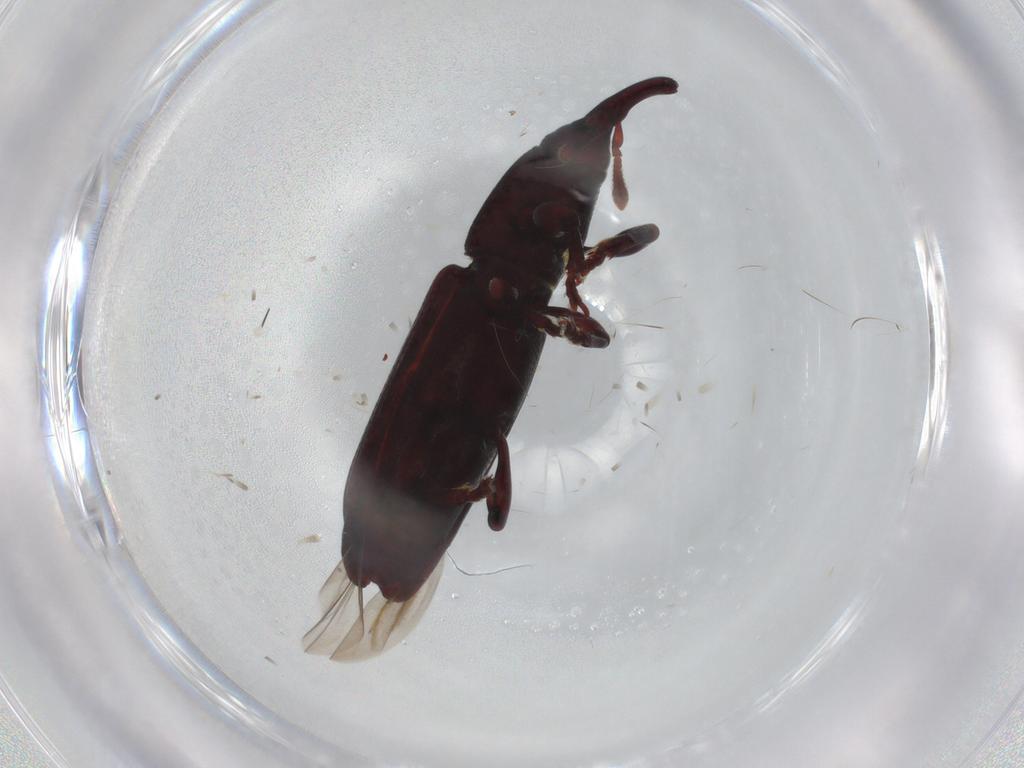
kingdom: Animalia
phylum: Arthropoda
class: Insecta
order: Coleoptera
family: Curculionidae
